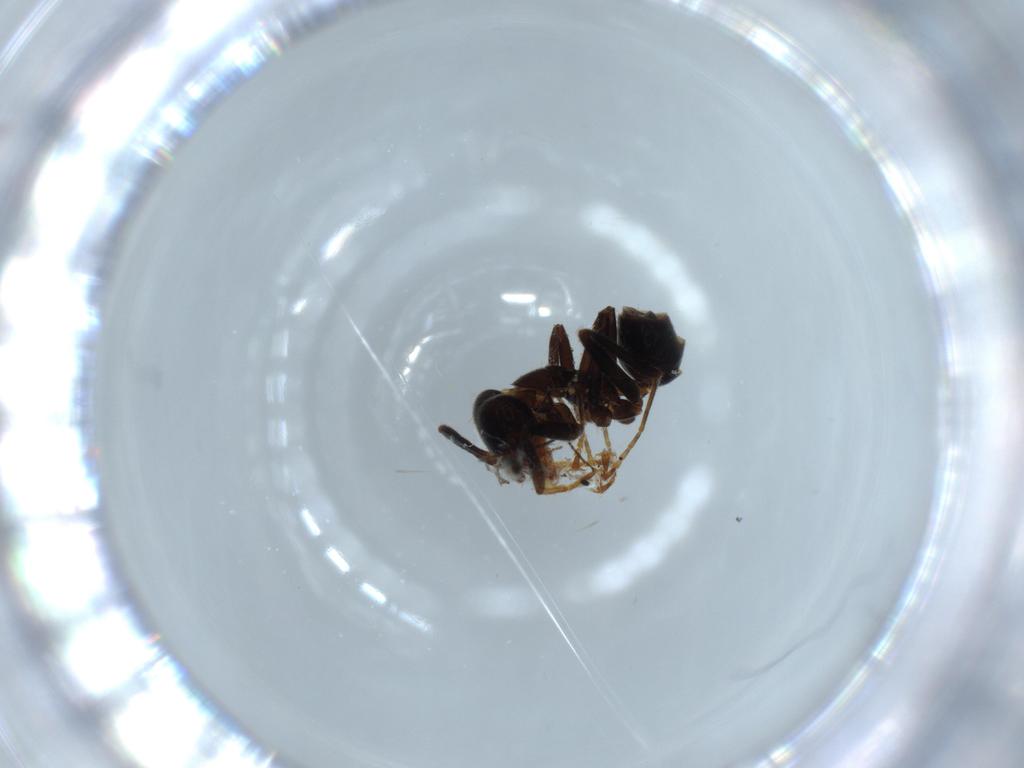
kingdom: Animalia
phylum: Arthropoda
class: Insecta
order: Hymenoptera
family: Formicidae
